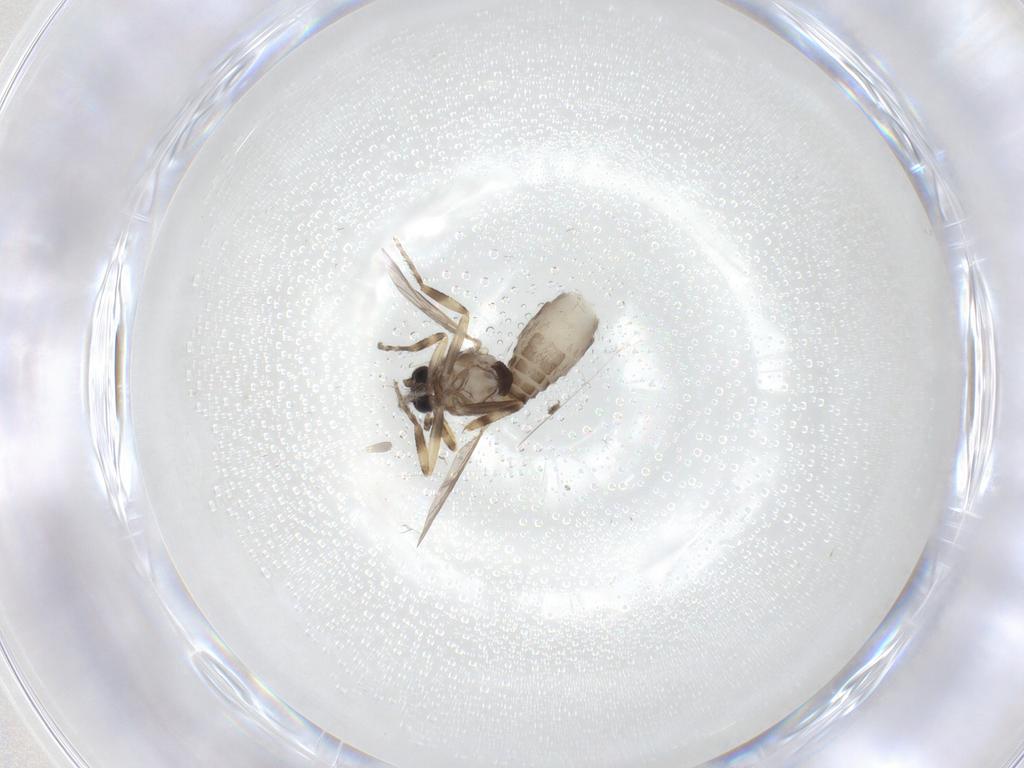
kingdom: Animalia
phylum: Arthropoda
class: Insecta
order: Diptera
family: Ceratopogonidae
